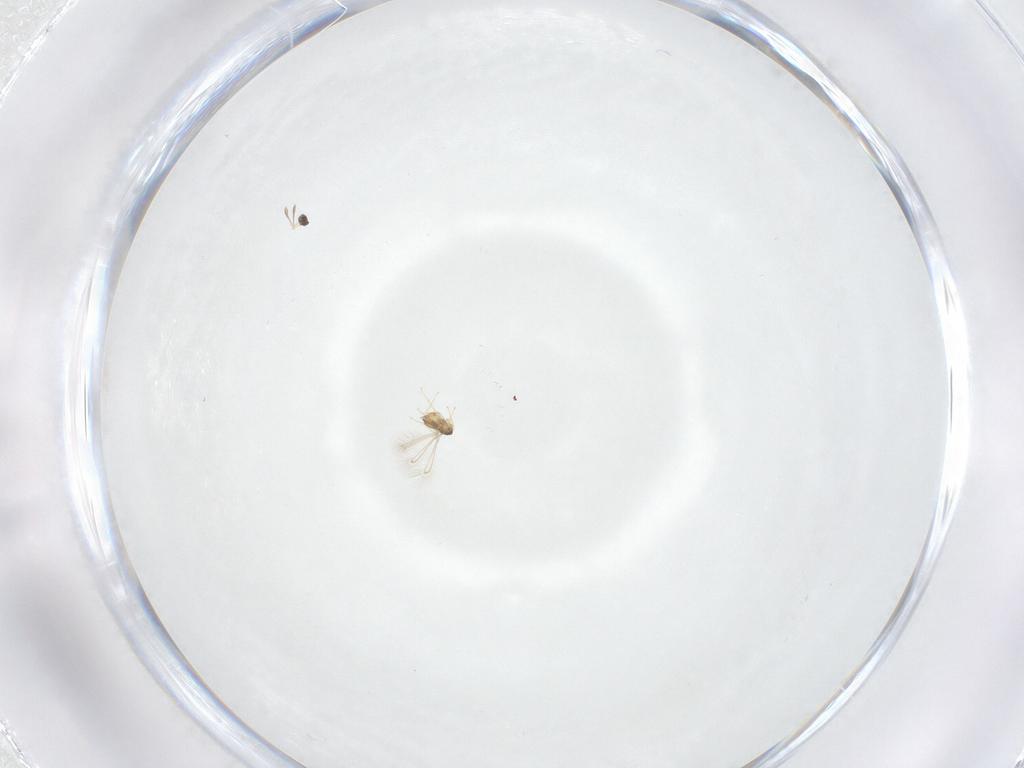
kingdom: Animalia
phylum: Arthropoda
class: Insecta
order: Hymenoptera
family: Mymaridae
